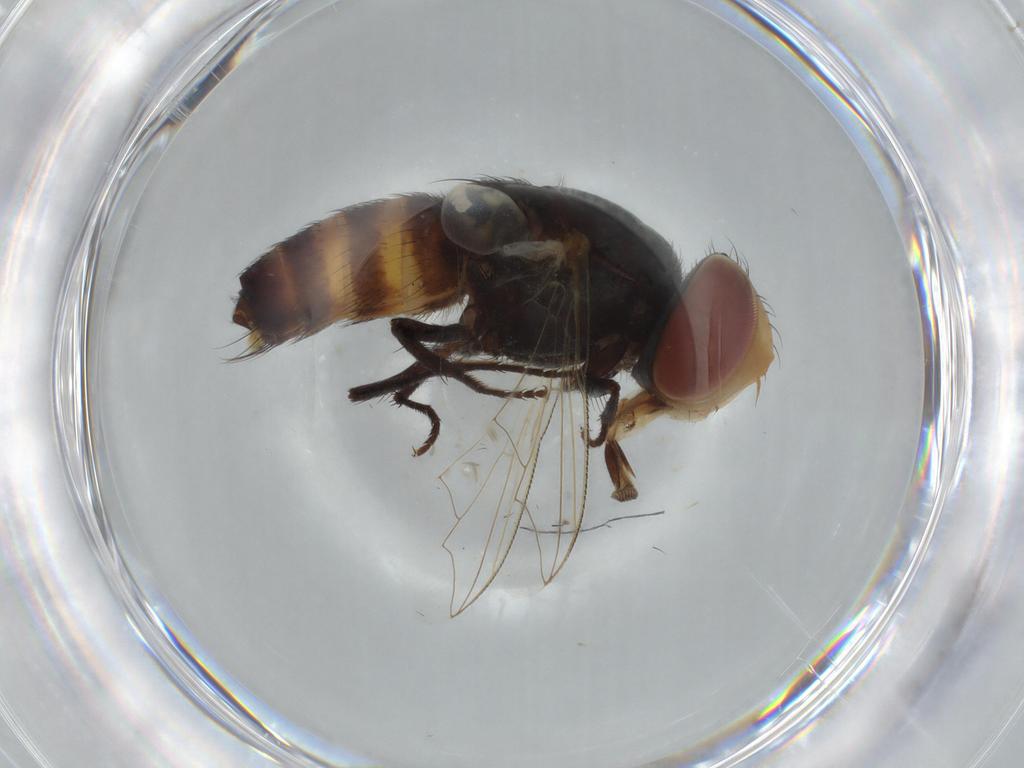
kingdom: Animalia
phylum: Arthropoda
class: Insecta
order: Diptera
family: Sarcophagidae
